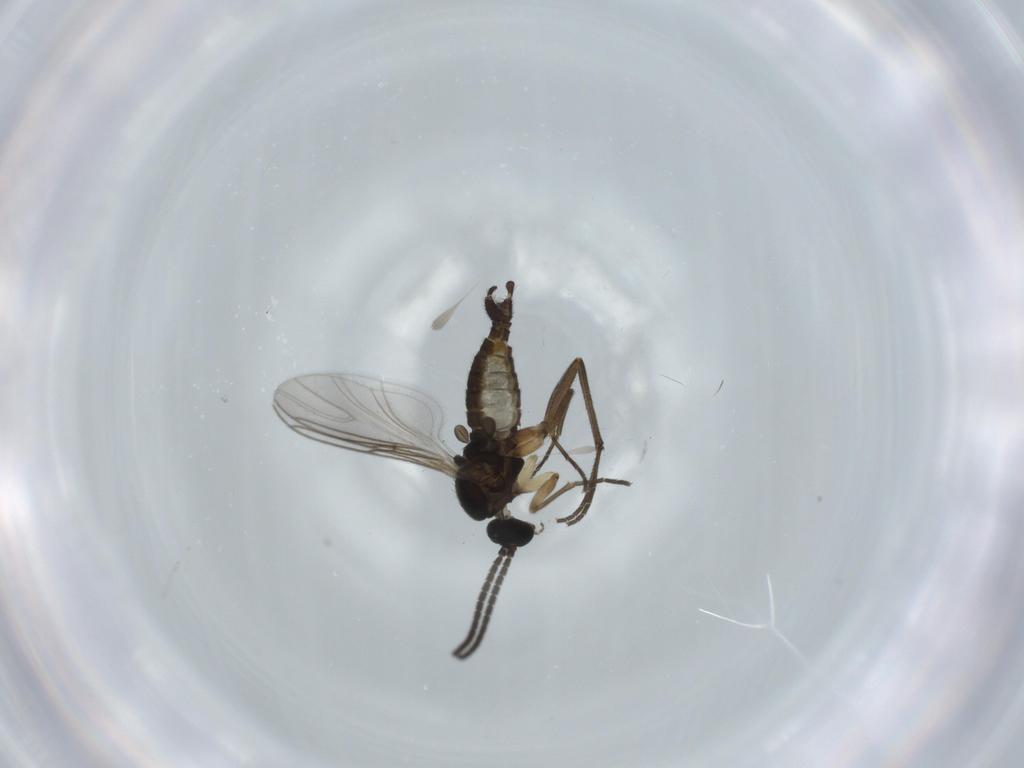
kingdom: Animalia
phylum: Arthropoda
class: Insecta
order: Diptera
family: Sciaridae
